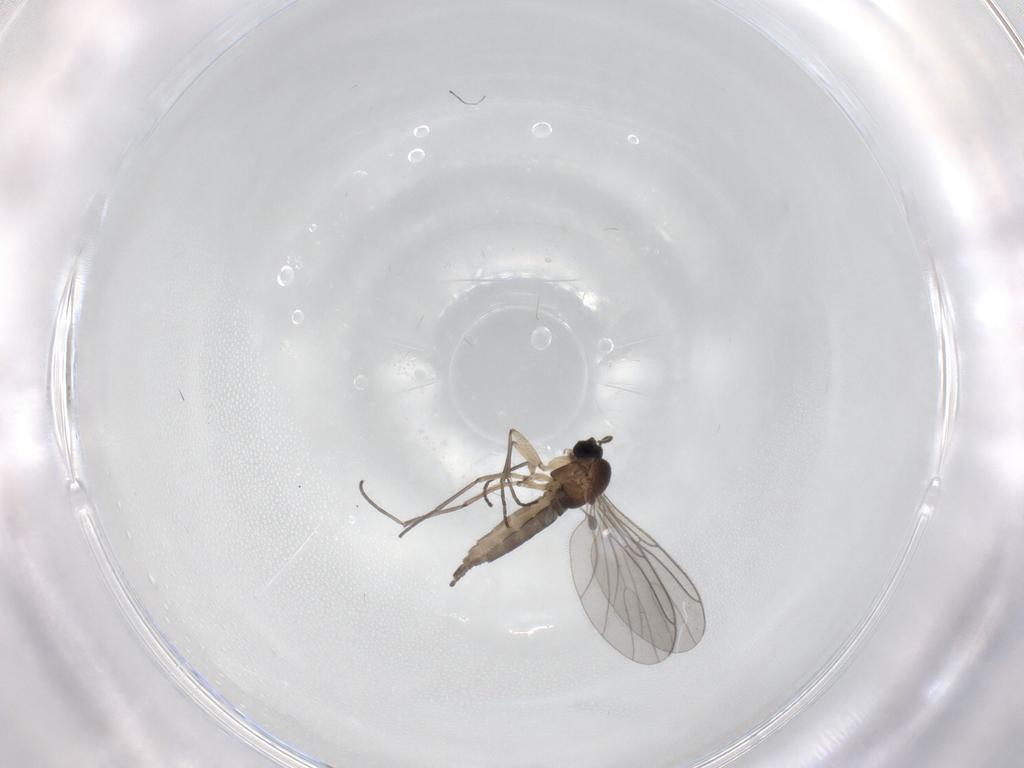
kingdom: Animalia
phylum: Arthropoda
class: Insecta
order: Diptera
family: Sciaridae
